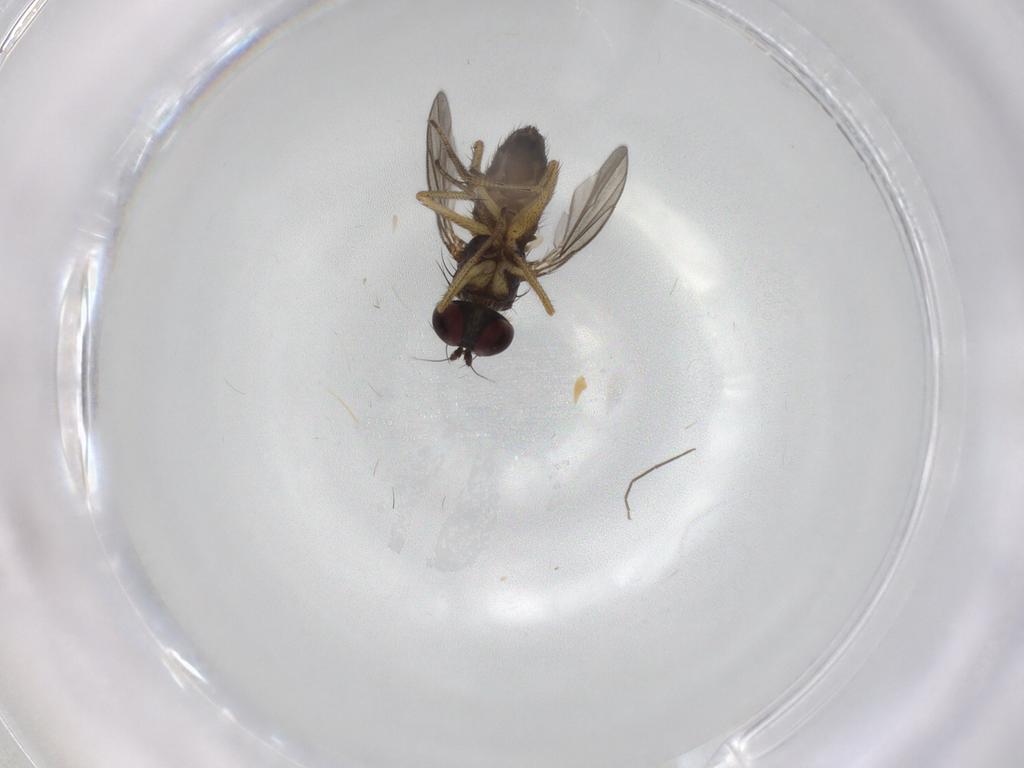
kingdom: Animalia
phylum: Arthropoda
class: Insecta
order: Diptera
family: Dolichopodidae
